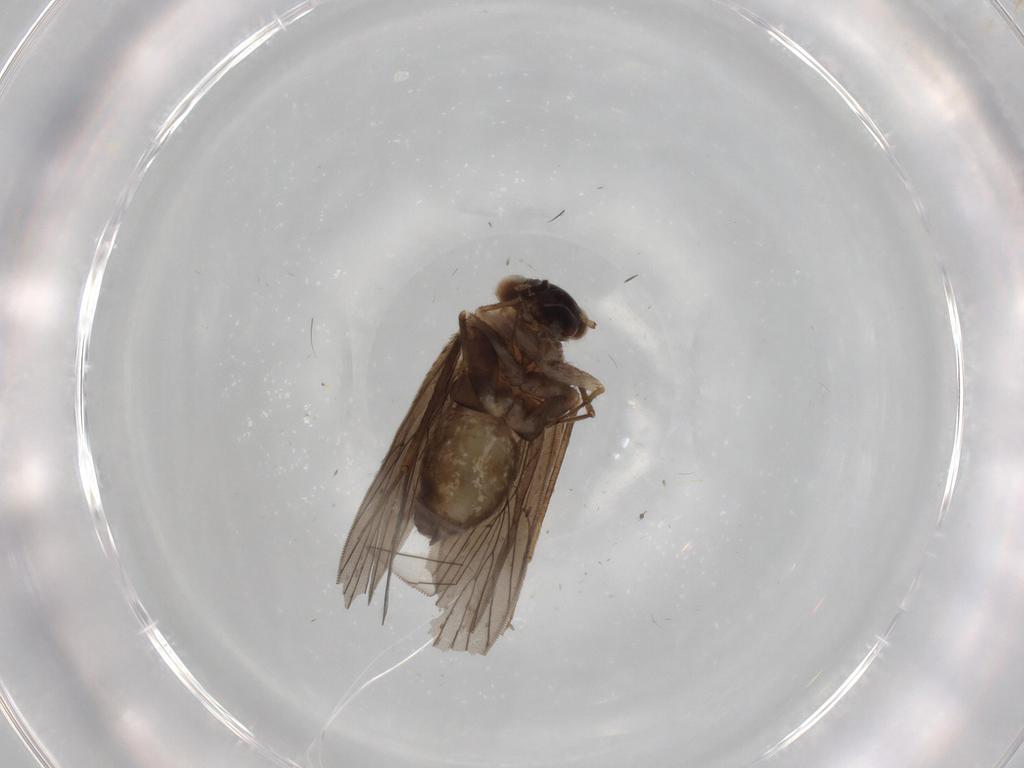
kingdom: Animalia
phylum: Arthropoda
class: Insecta
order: Psocodea
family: Lepidopsocidae
